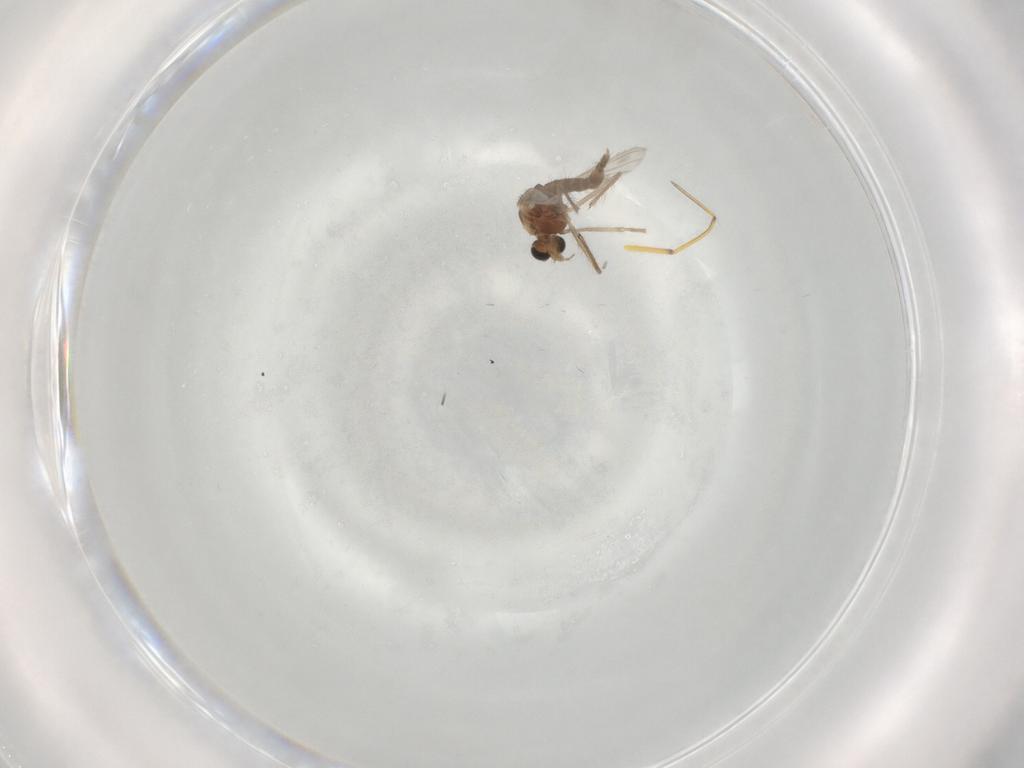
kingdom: Animalia
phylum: Arthropoda
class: Insecta
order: Diptera
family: Chironomidae
